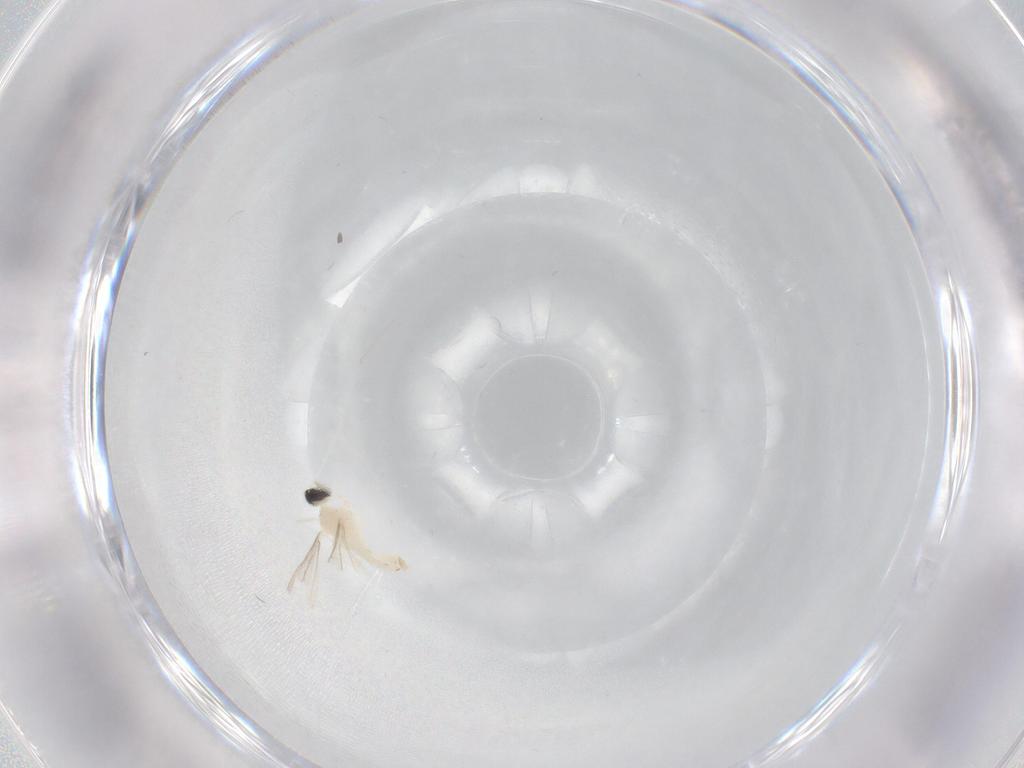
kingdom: Animalia
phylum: Arthropoda
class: Insecta
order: Diptera
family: Cecidomyiidae
